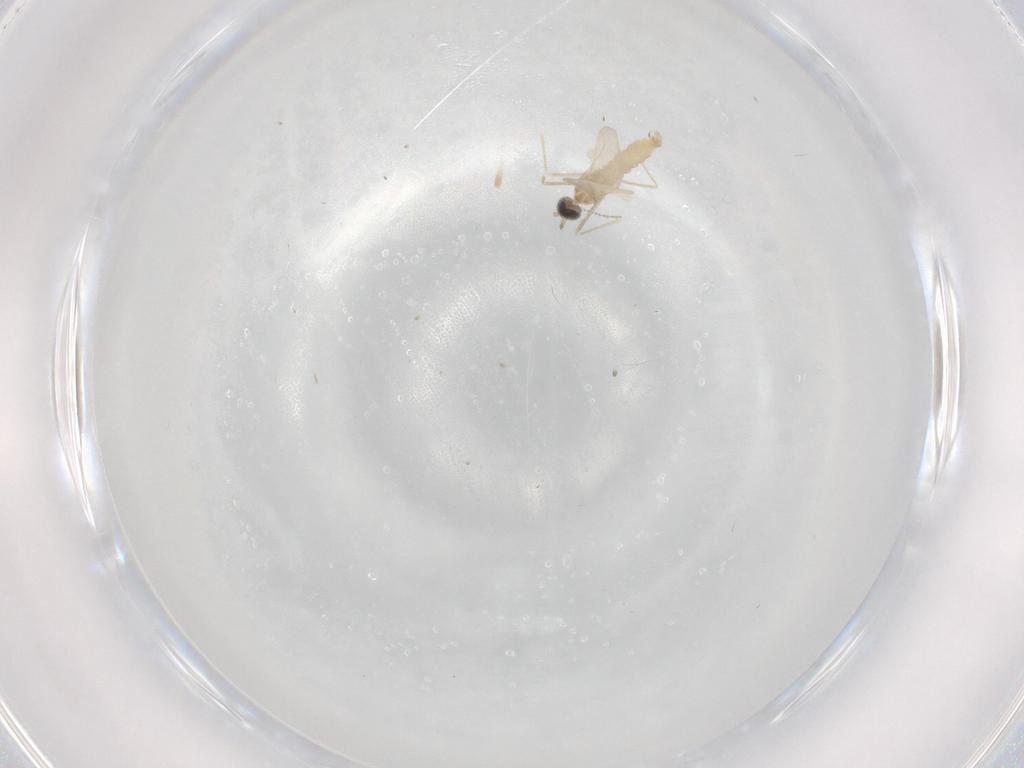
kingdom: Animalia
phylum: Arthropoda
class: Insecta
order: Diptera
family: Cecidomyiidae
